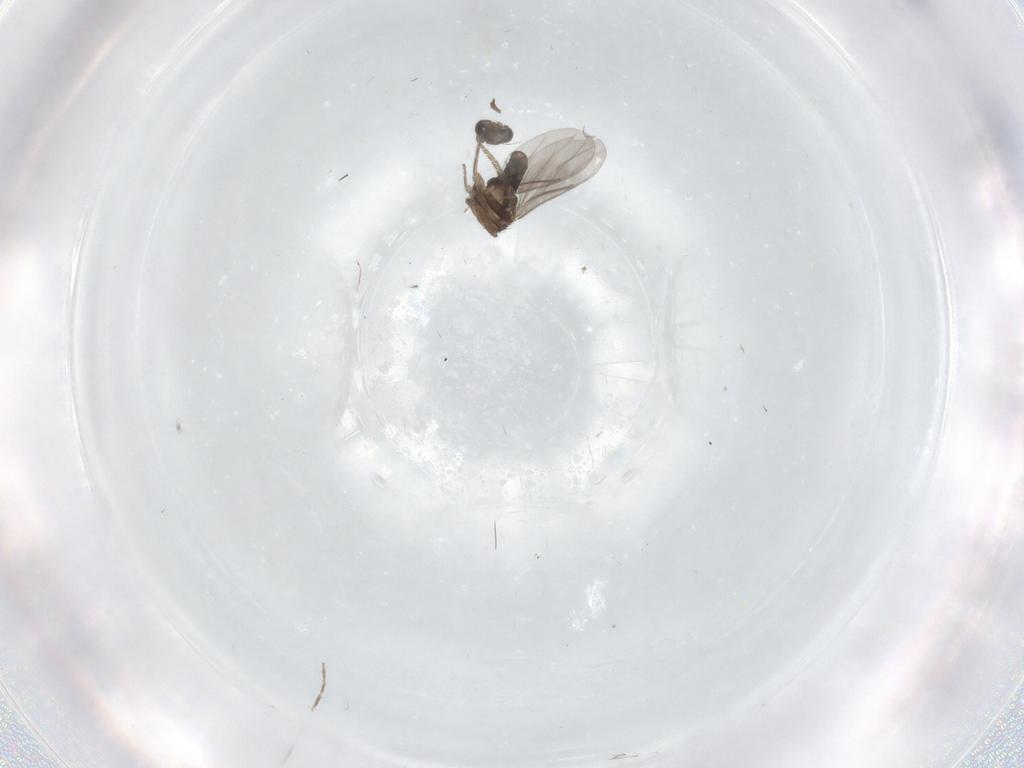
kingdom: Animalia
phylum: Arthropoda
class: Insecta
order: Diptera
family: Phoridae
